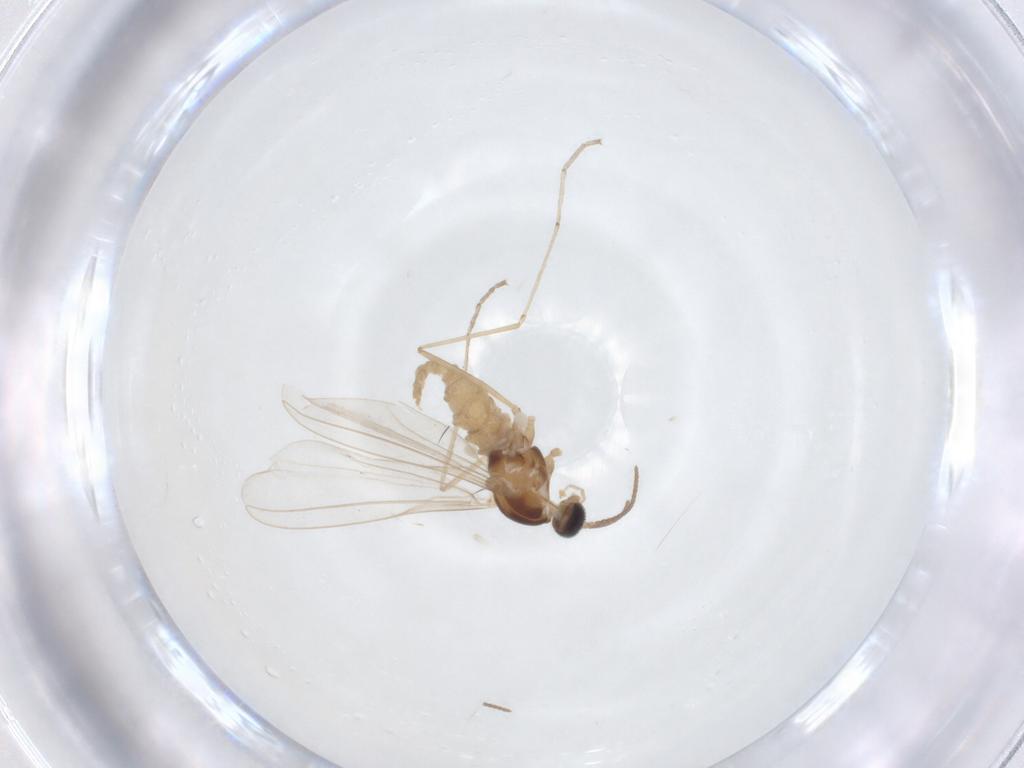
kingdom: Animalia
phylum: Arthropoda
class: Insecta
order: Diptera
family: Cecidomyiidae
